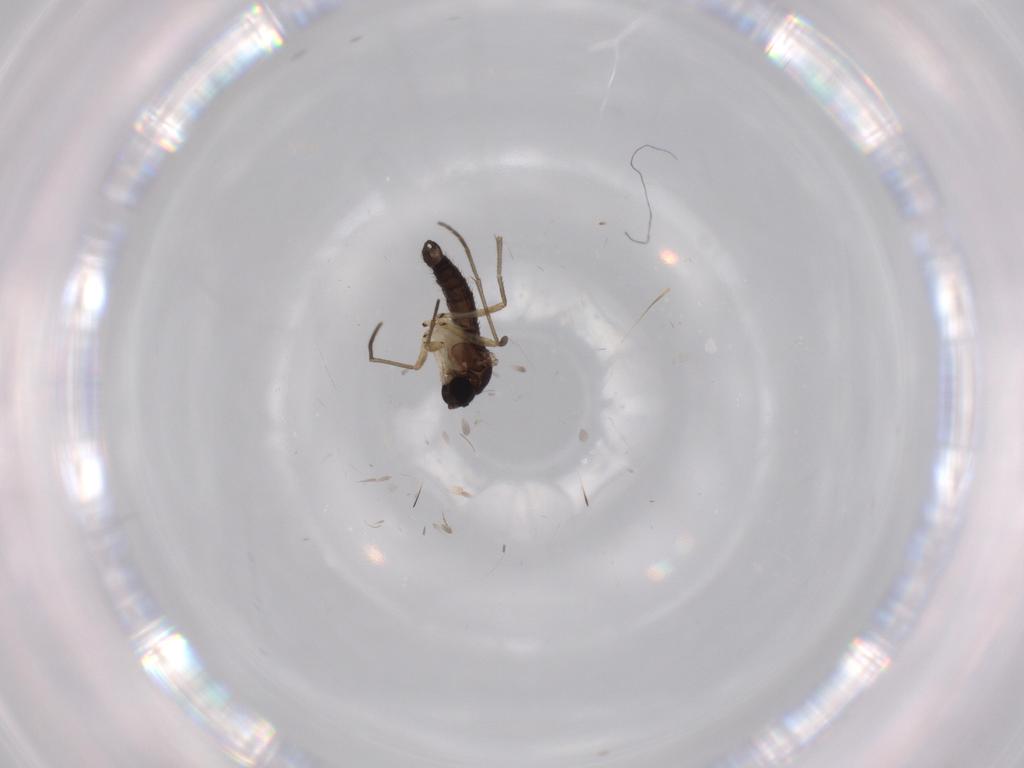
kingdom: Animalia
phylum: Arthropoda
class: Insecta
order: Diptera
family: Sciaridae
